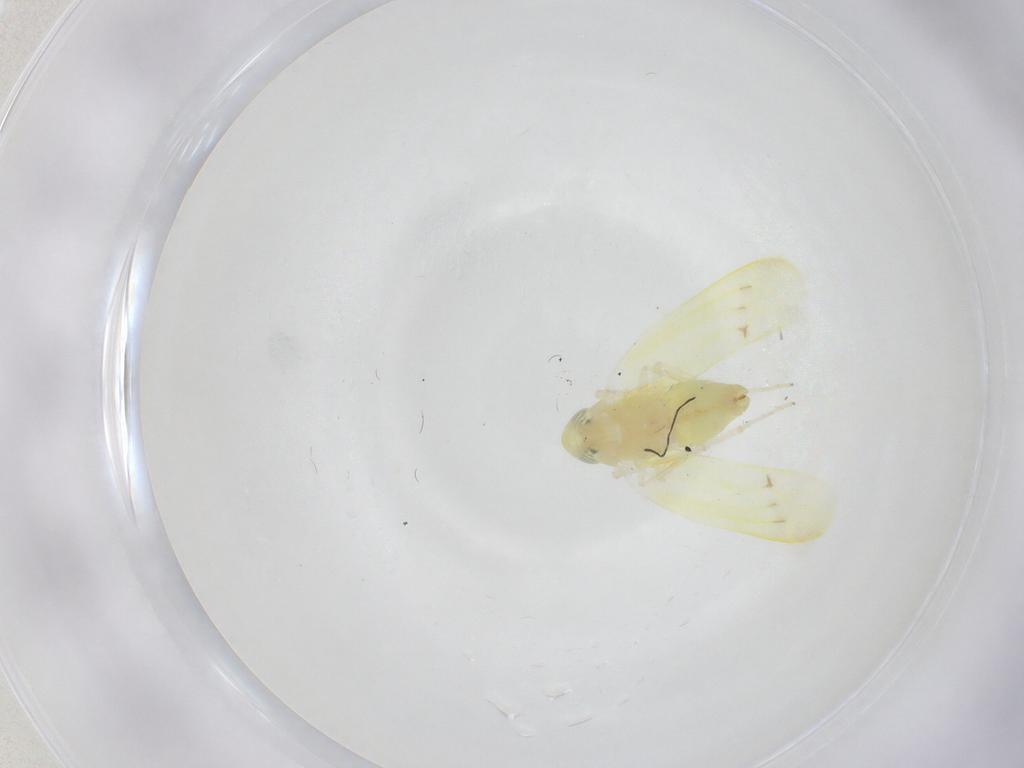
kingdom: Animalia
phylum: Arthropoda
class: Insecta
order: Hemiptera
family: Cicadellidae
